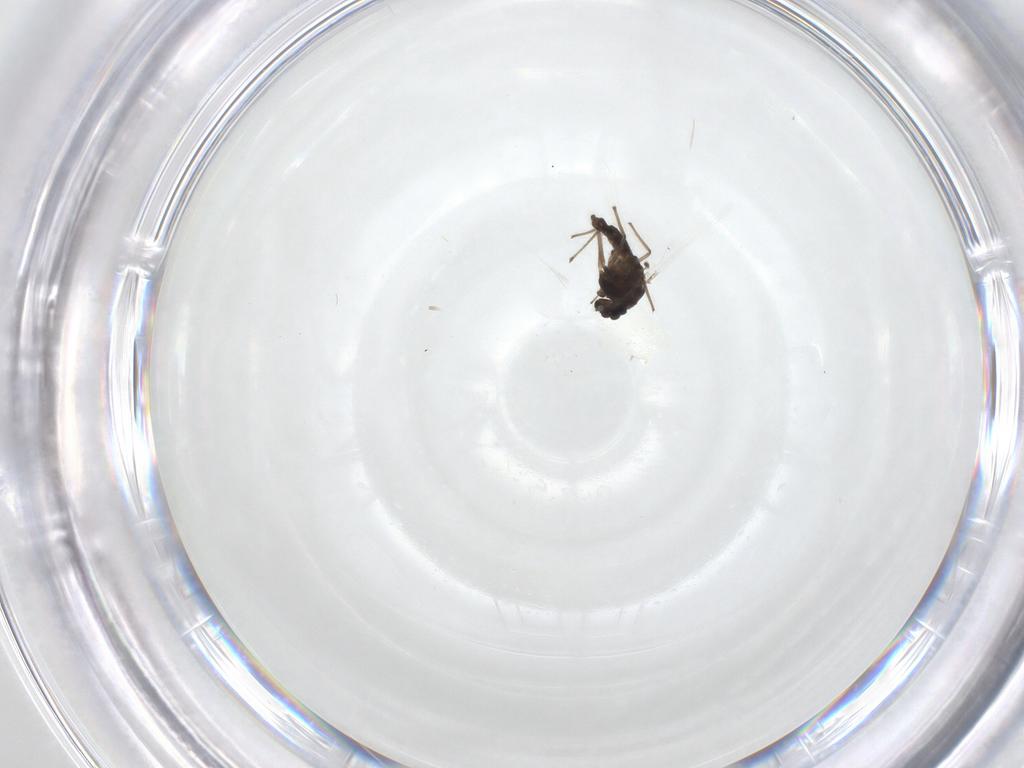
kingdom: Animalia
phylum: Arthropoda
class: Insecta
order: Diptera
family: Chironomidae
